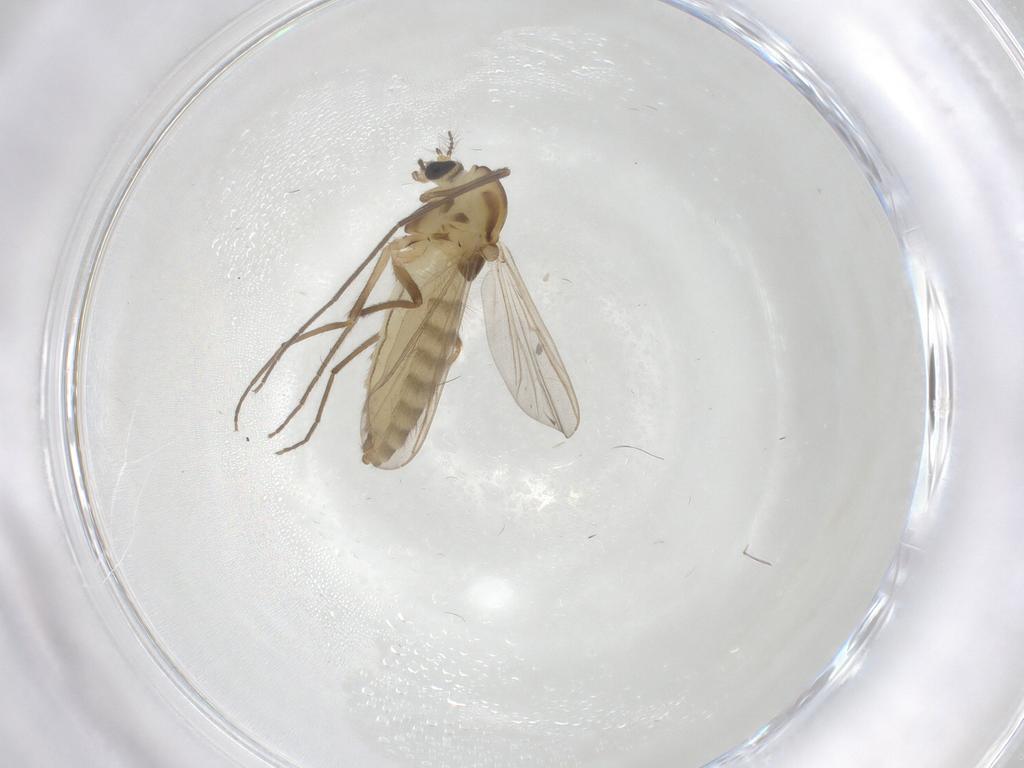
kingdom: Animalia
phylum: Arthropoda
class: Insecta
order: Diptera
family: Chironomidae
